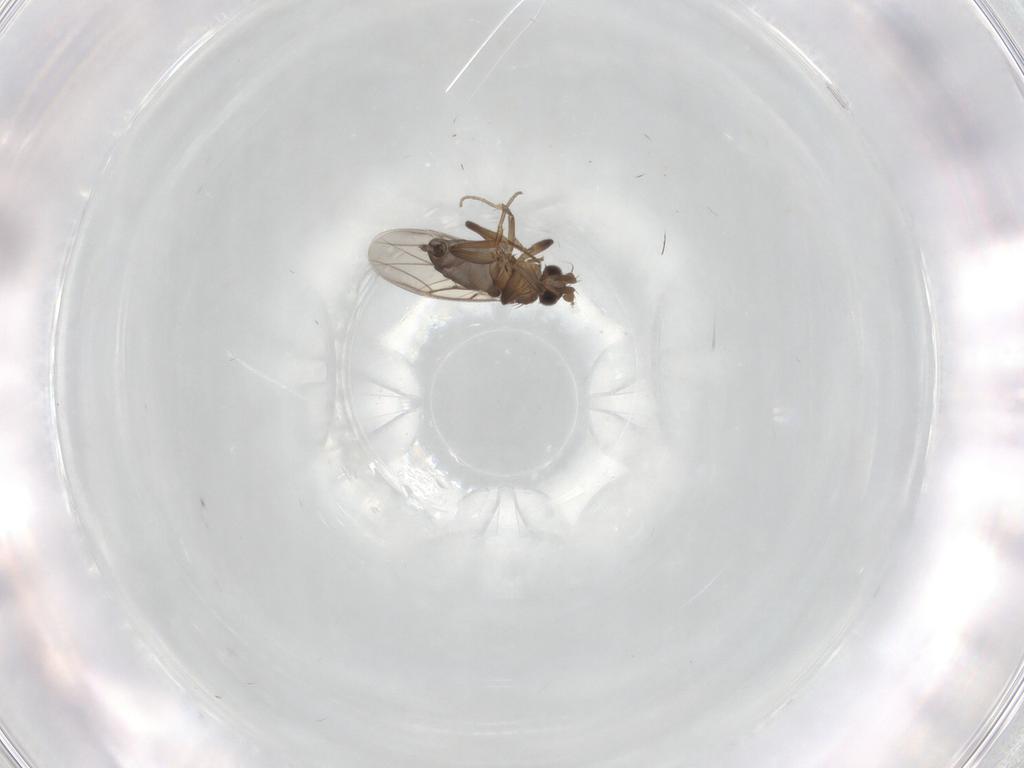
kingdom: Animalia
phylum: Arthropoda
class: Insecta
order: Diptera
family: Phoridae
